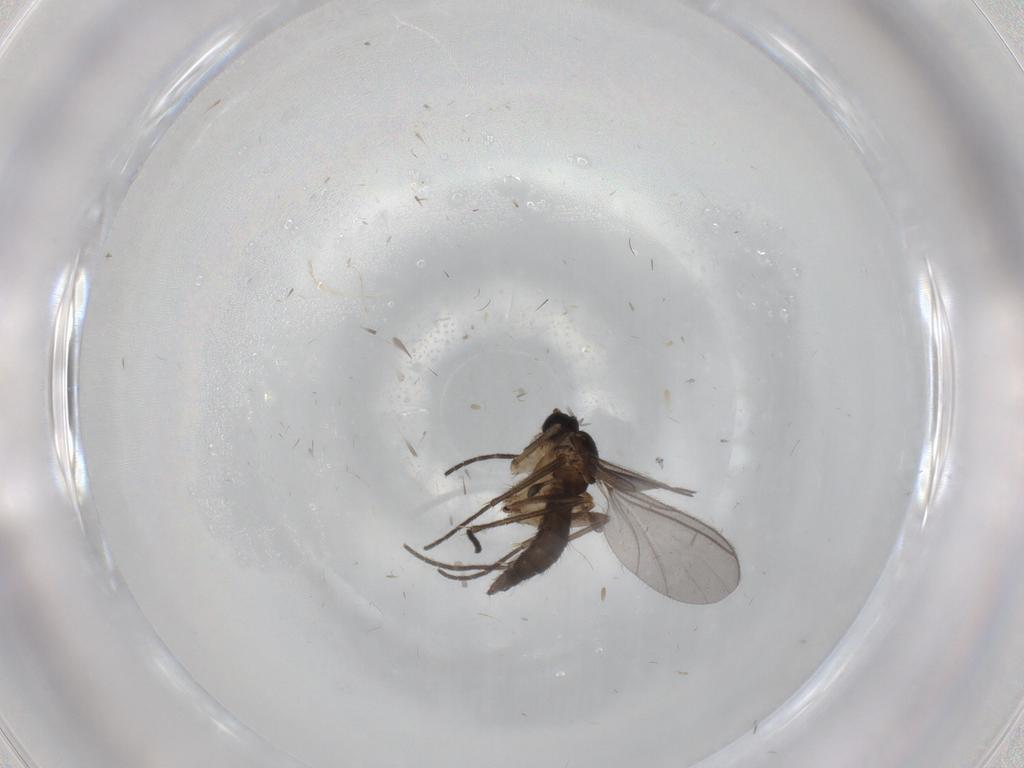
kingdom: Animalia
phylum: Arthropoda
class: Insecta
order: Diptera
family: Sciaridae
